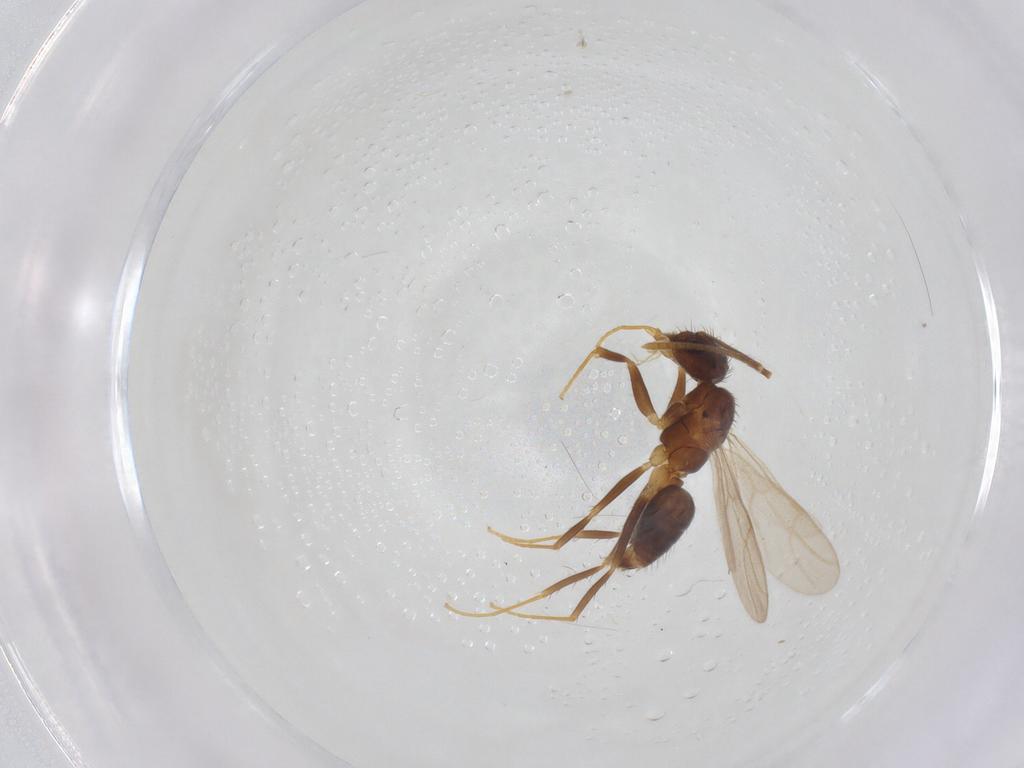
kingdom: Animalia
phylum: Arthropoda
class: Insecta
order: Hymenoptera
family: Formicidae
